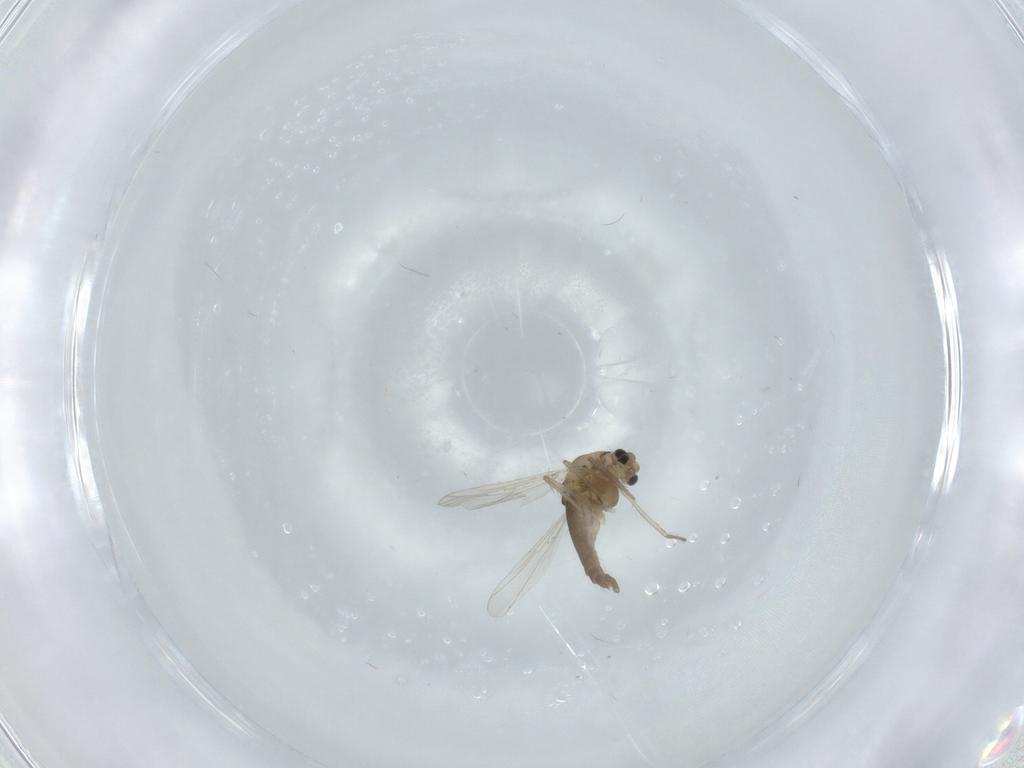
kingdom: Animalia
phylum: Arthropoda
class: Insecta
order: Diptera
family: Chironomidae
